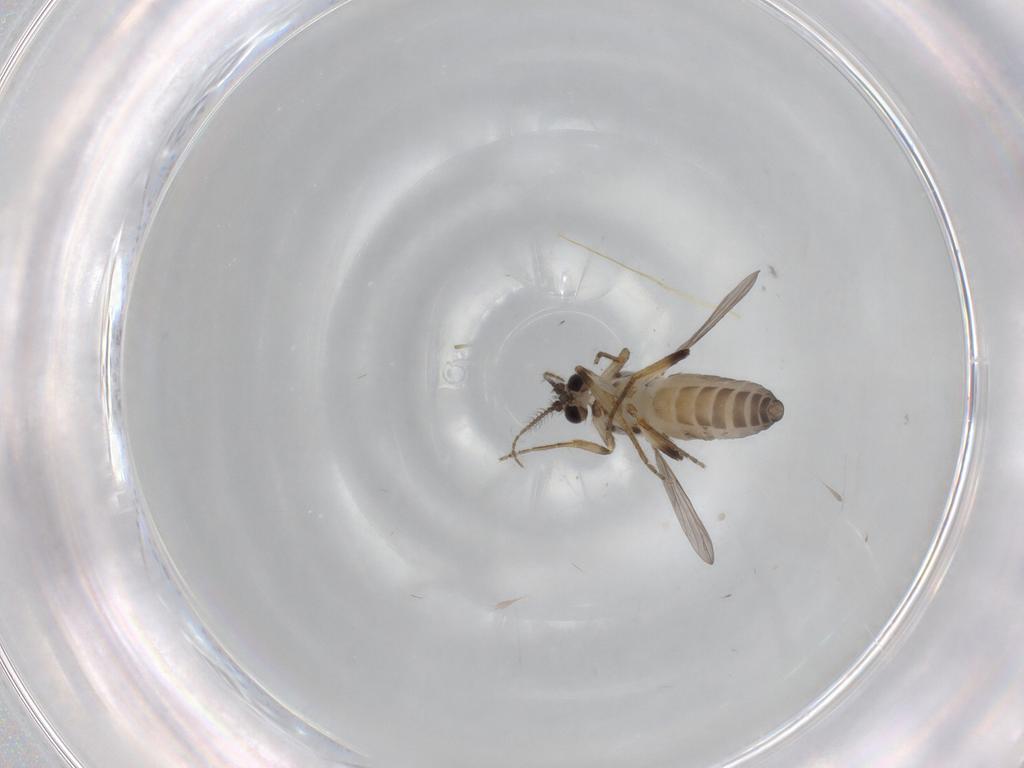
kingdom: Animalia
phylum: Arthropoda
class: Insecta
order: Diptera
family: Ceratopogonidae
